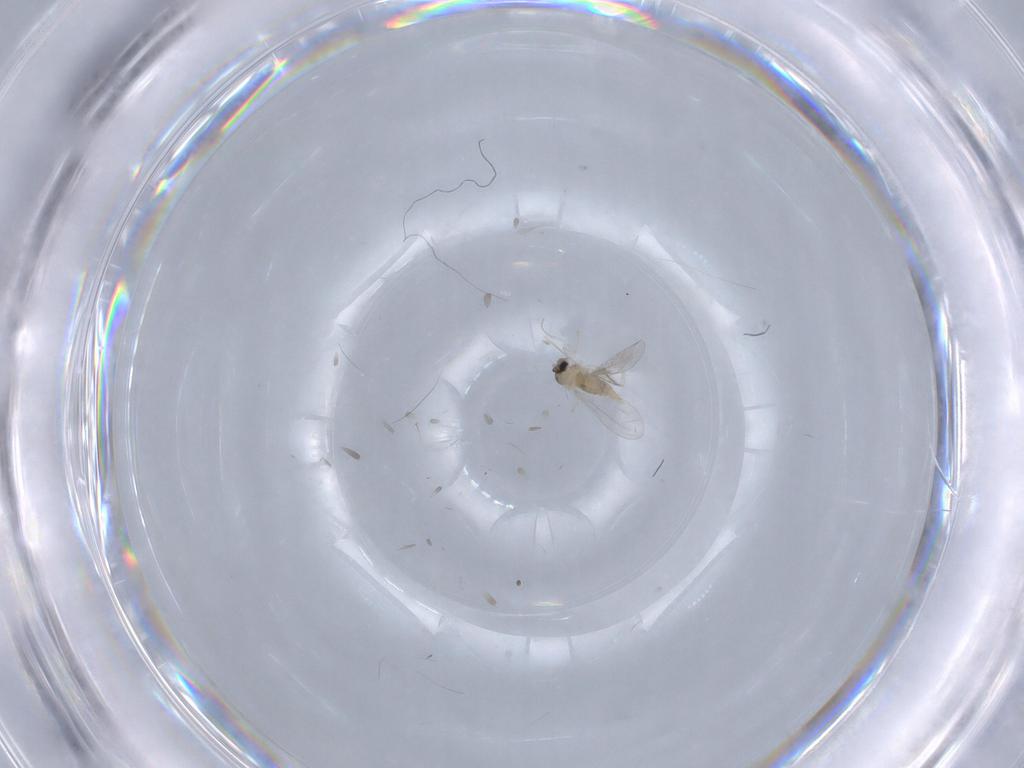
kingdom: Animalia
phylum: Arthropoda
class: Insecta
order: Diptera
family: Cecidomyiidae
